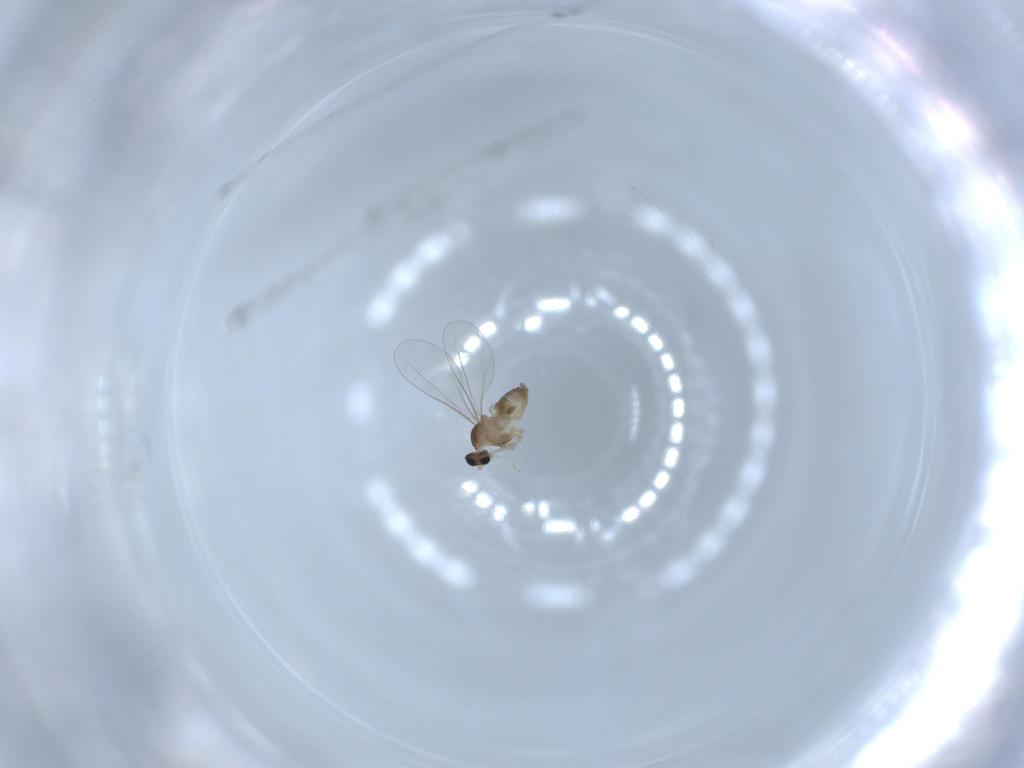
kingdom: Animalia
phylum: Arthropoda
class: Insecta
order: Diptera
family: Cecidomyiidae
